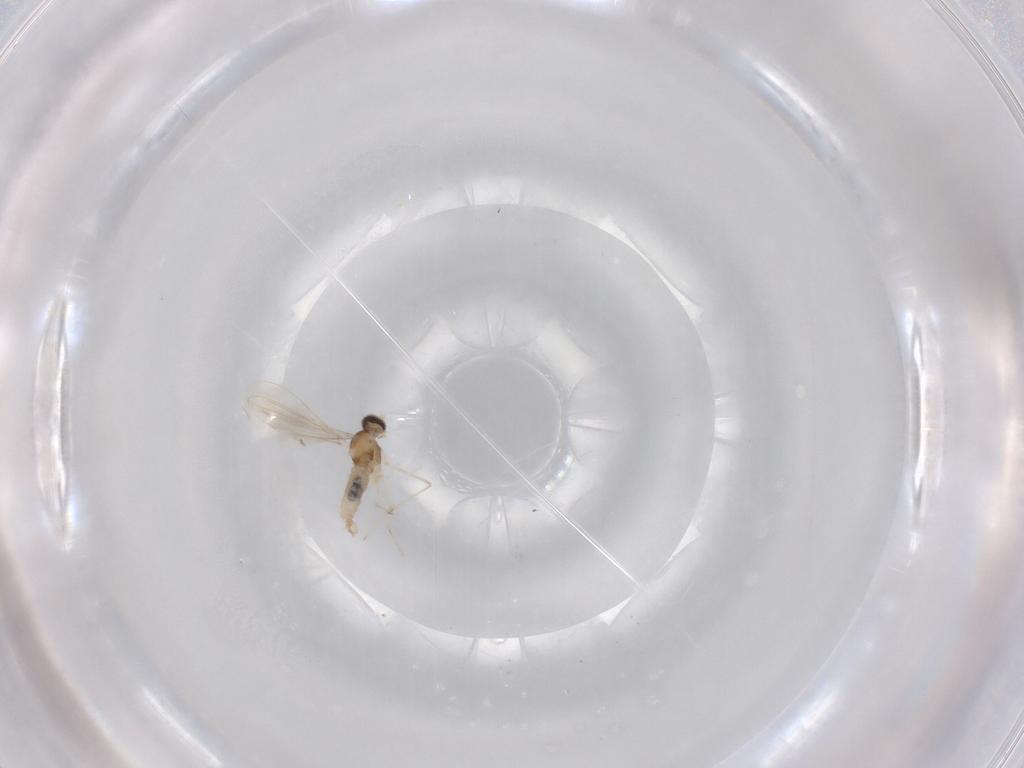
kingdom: Animalia
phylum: Arthropoda
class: Insecta
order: Diptera
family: Cecidomyiidae
